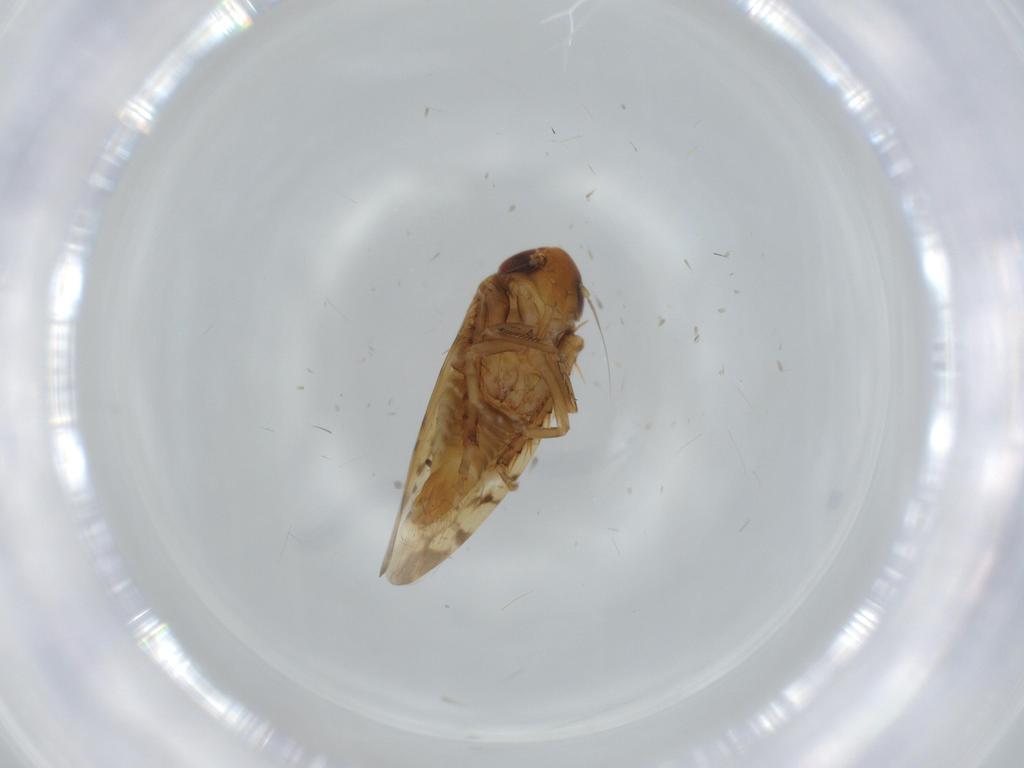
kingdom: Animalia
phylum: Arthropoda
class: Insecta
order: Hemiptera
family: Cicadellidae
